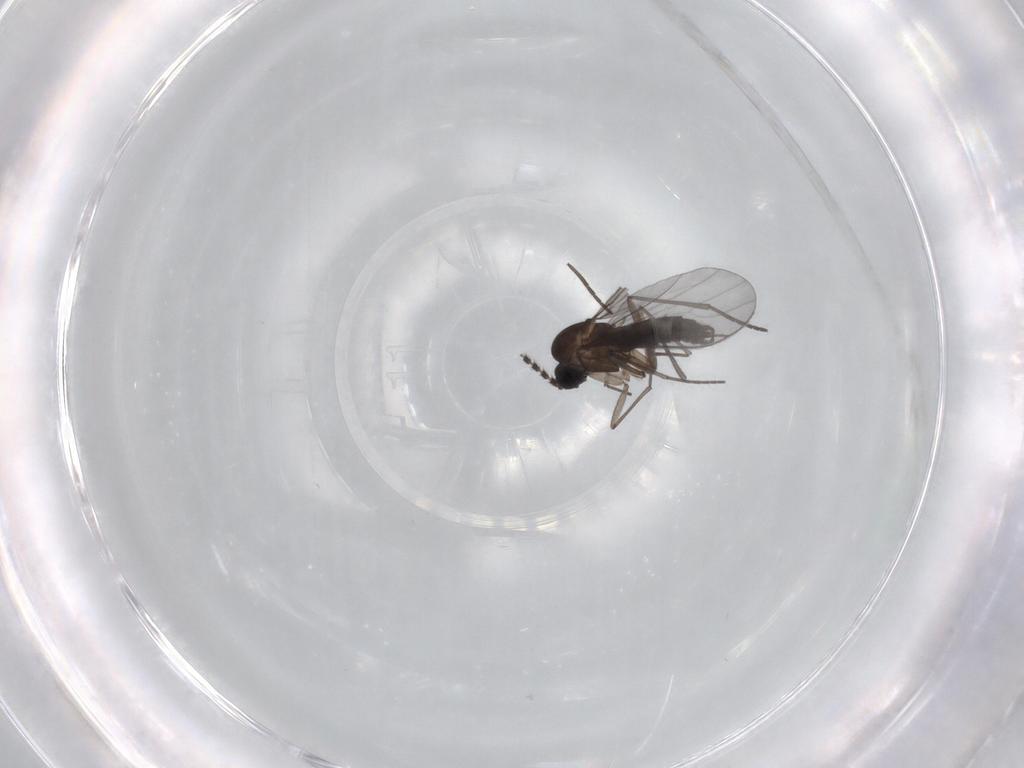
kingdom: Animalia
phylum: Arthropoda
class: Insecta
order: Diptera
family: Sciaridae
